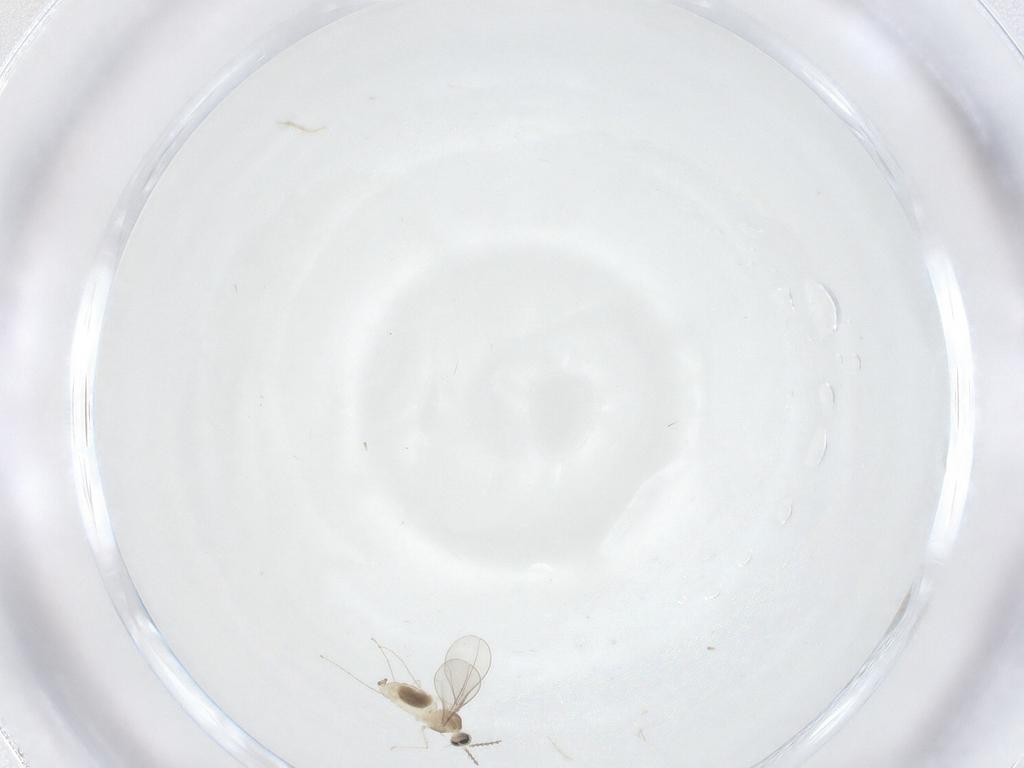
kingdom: Animalia
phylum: Arthropoda
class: Insecta
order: Diptera
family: Cecidomyiidae
